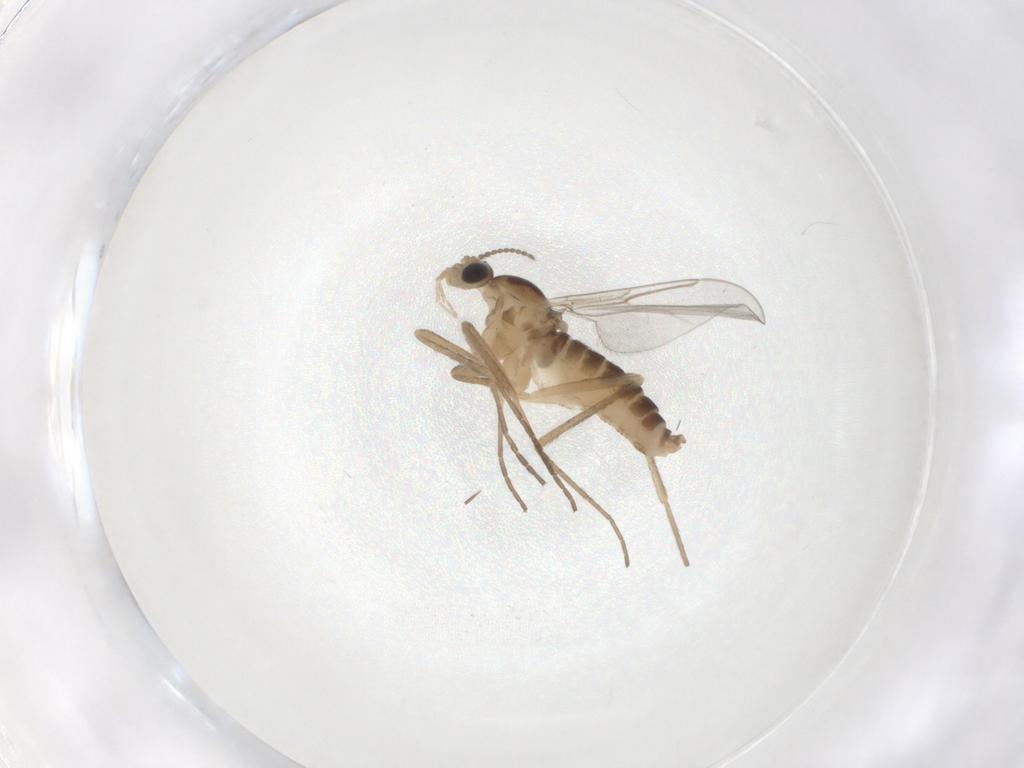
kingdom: Animalia
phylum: Arthropoda
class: Insecta
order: Diptera
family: Cecidomyiidae
